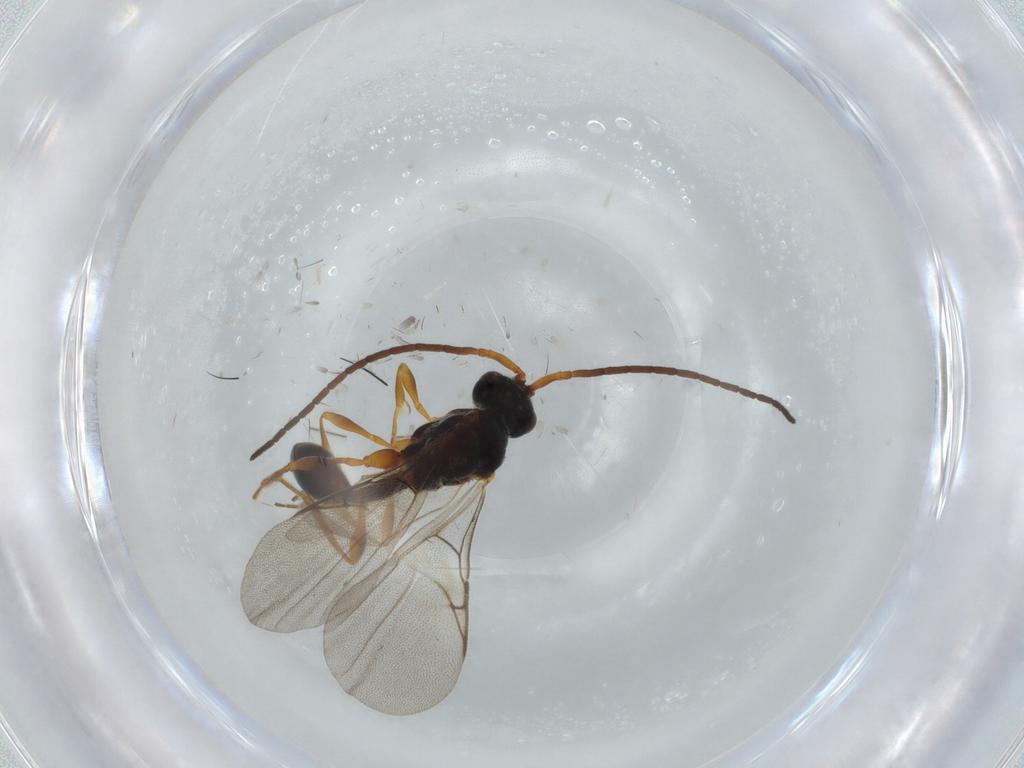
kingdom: Animalia
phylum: Arthropoda
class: Insecta
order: Hymenoptera
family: Diapriidae
